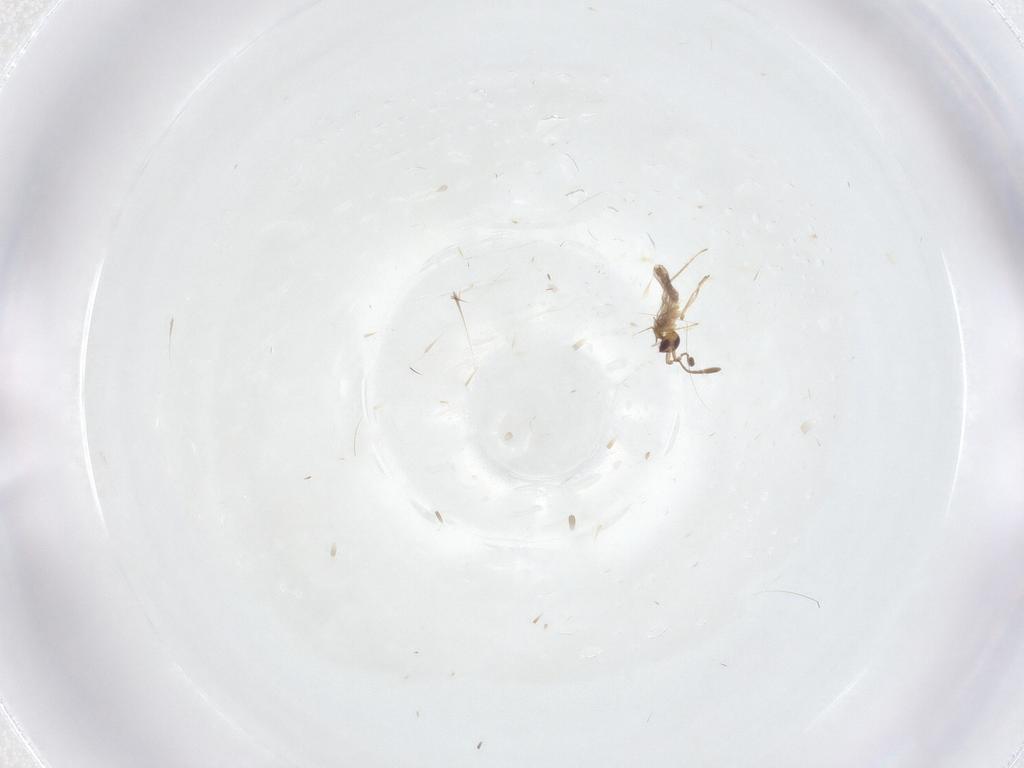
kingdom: Animalia
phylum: Arthropoda
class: Insecta
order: Hymenoptera
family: Mymaridae
